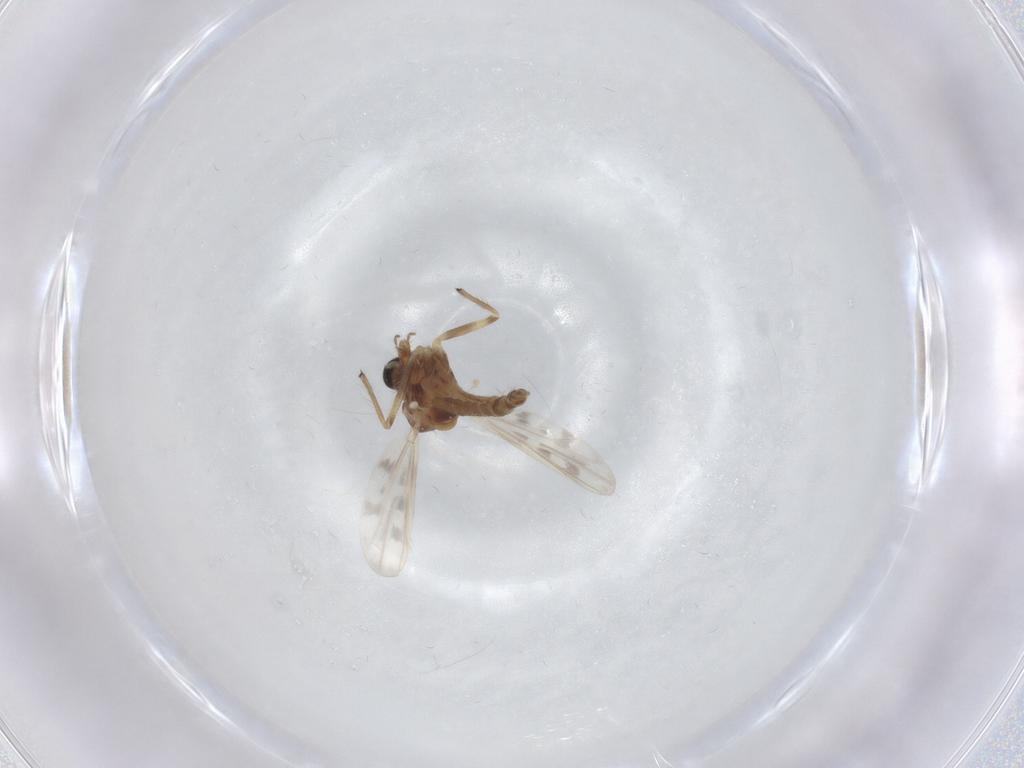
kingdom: Animalia
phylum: Arthropoda
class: Insecta
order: Diptera
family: Chironomidae
